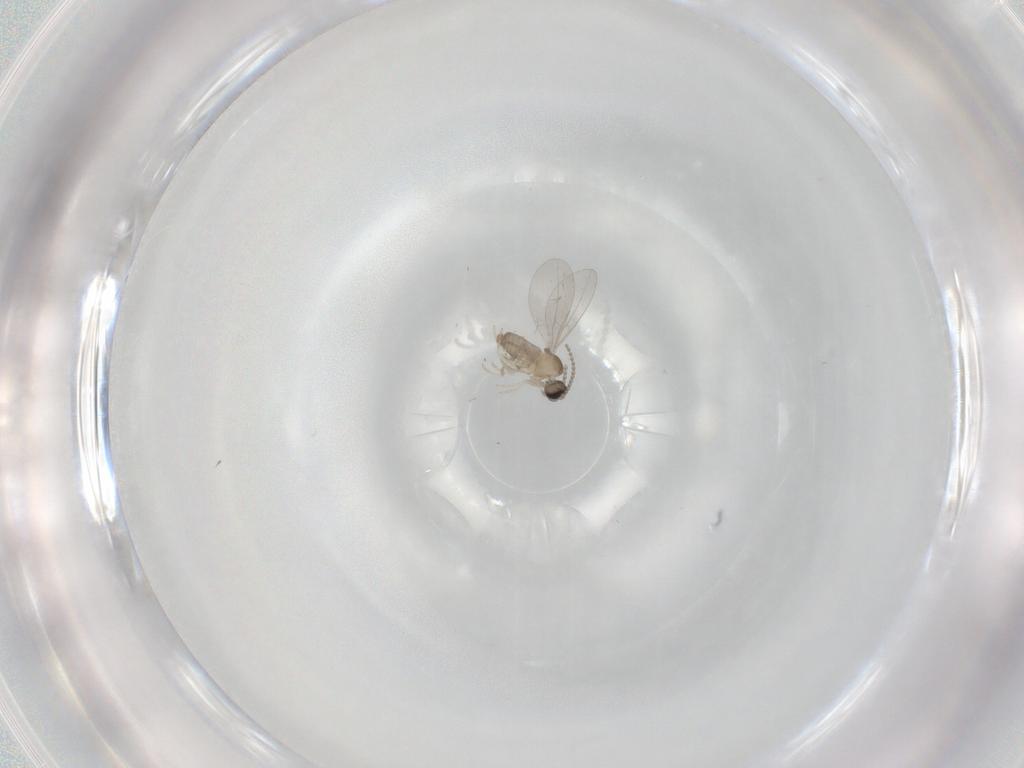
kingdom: Animalia
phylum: Arthropoda
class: Insecta
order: Diptera
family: Cecidomyiidae
